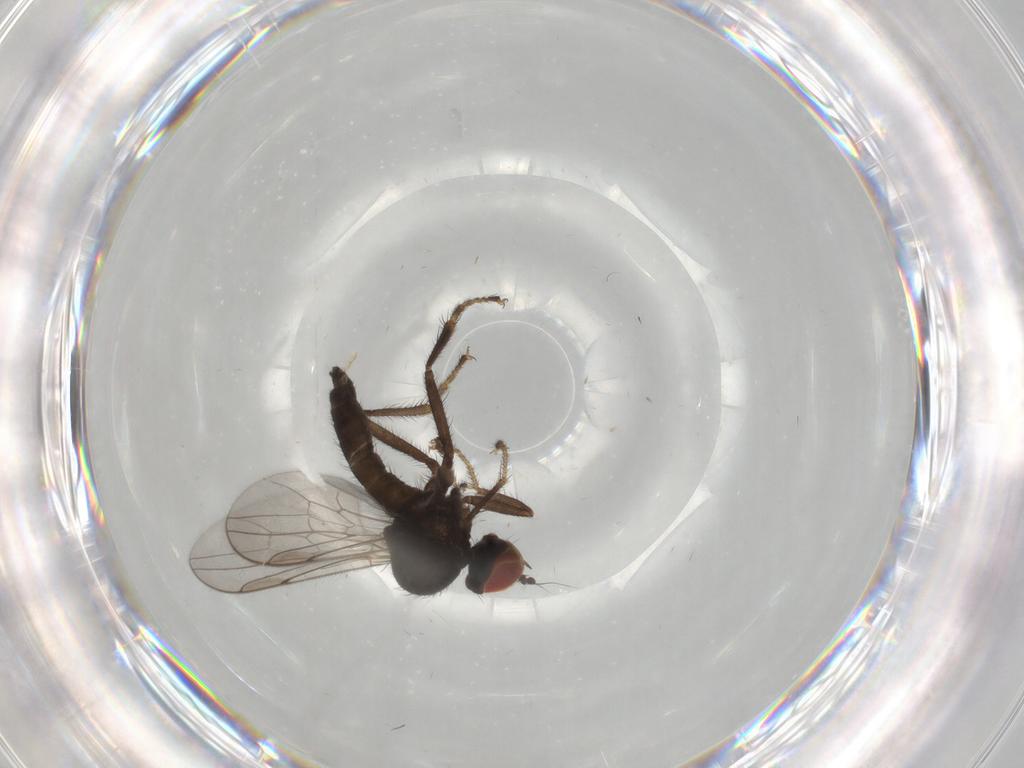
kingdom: Animalia
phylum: Arthropoda
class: Insecta
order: Diptera
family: Hybotidae
